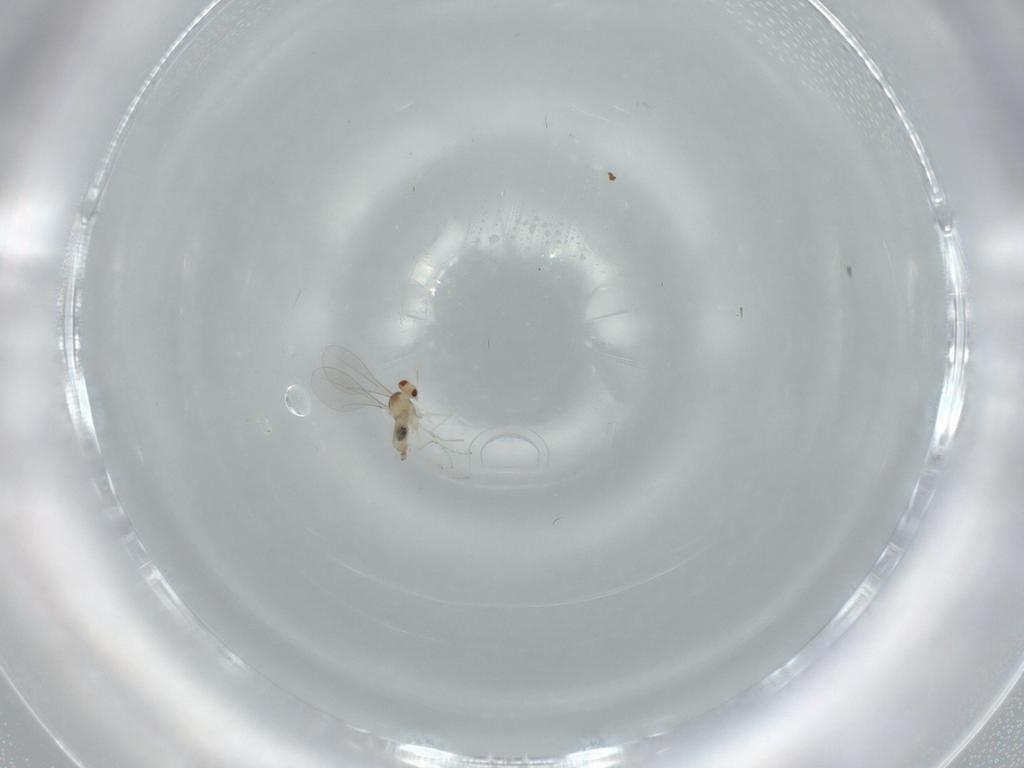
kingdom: Animalia
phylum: Arthropoda
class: Insecta
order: Diptera
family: Cecidomyiidae
